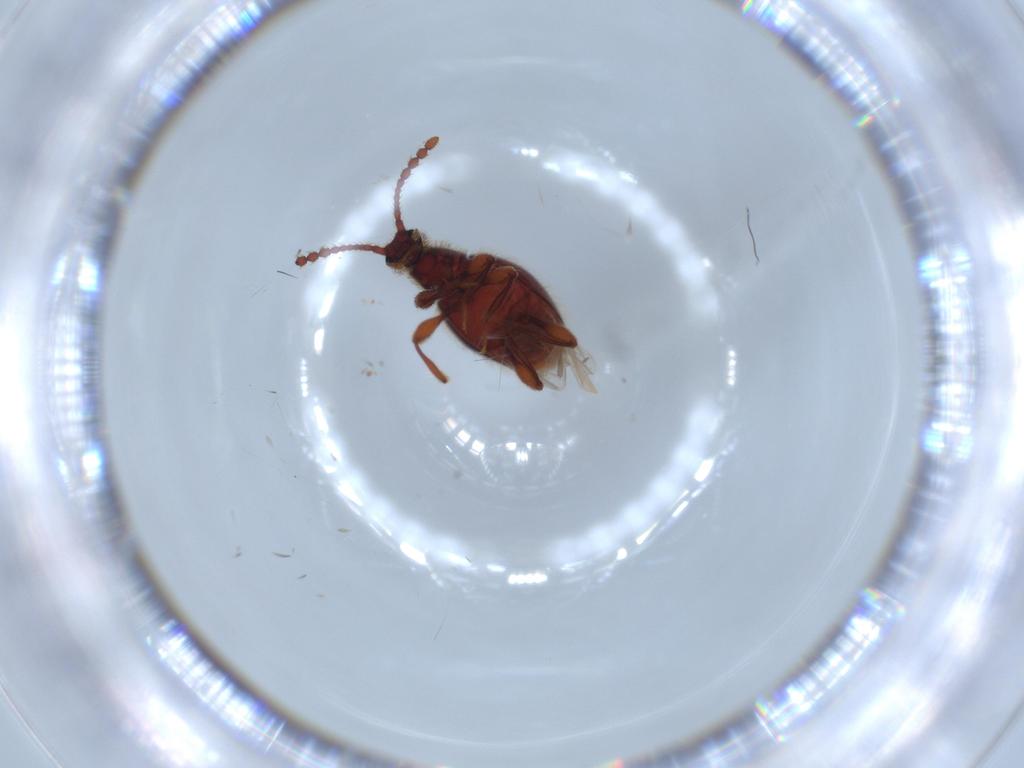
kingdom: Animalia
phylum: Arthropoda
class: Insecta
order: Coleoptera
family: Staphylinidae
